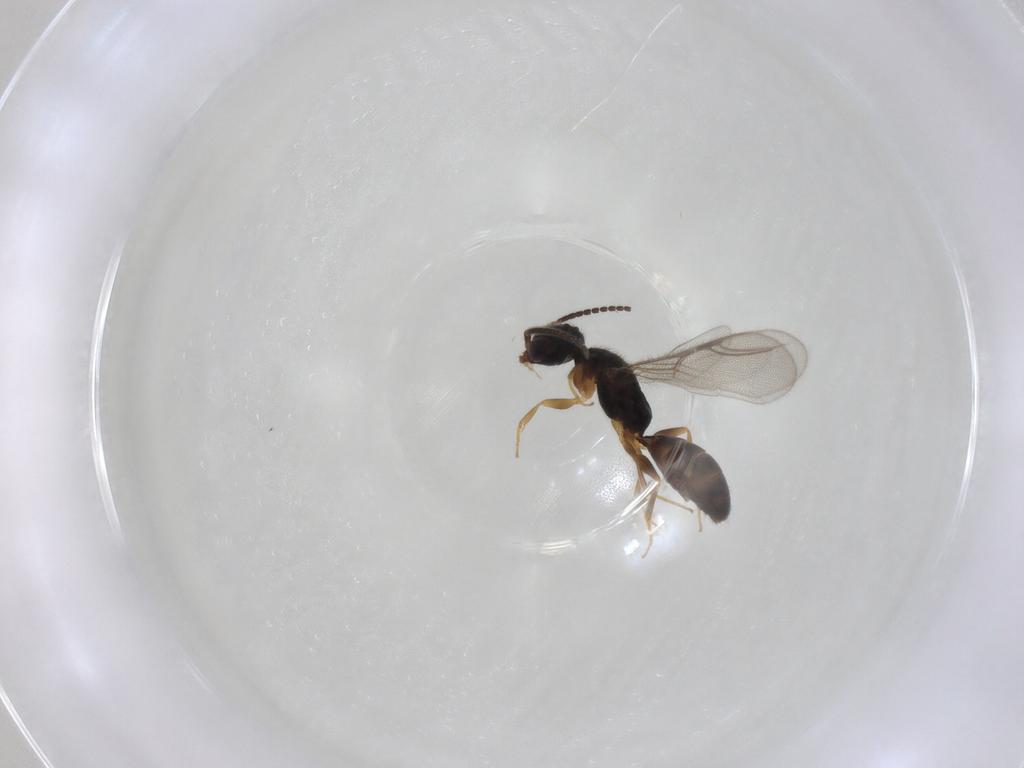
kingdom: Animalia
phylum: Arthropoda
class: Insecta
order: Hymenoptera
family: Bethylidae
